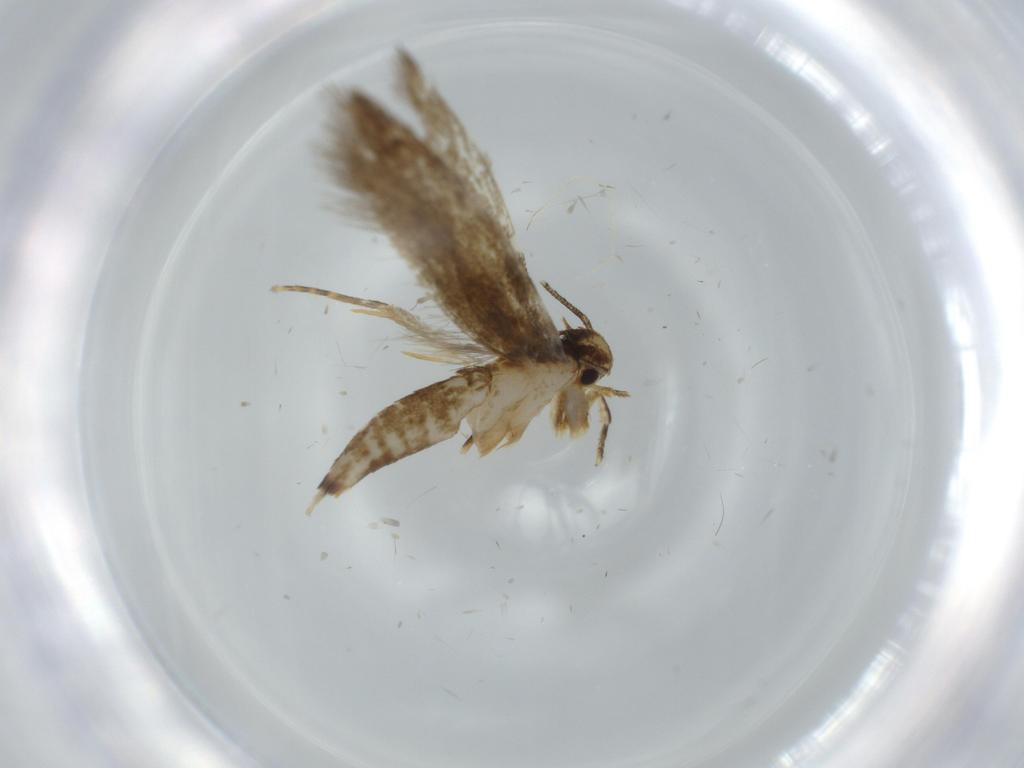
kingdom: Animalia
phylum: Arthropoda
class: Insecta
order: Lepidoptera
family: Tineidae
